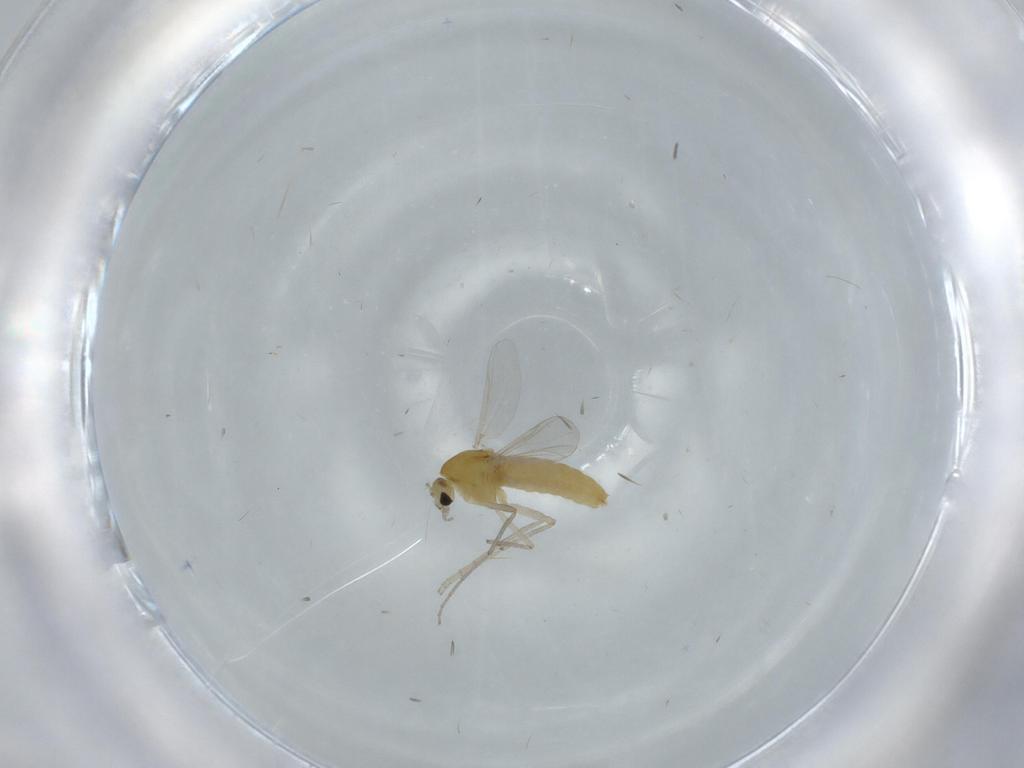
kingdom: Animalia
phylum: Arthropoda
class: Insecta
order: Diptera
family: Chironomidae
